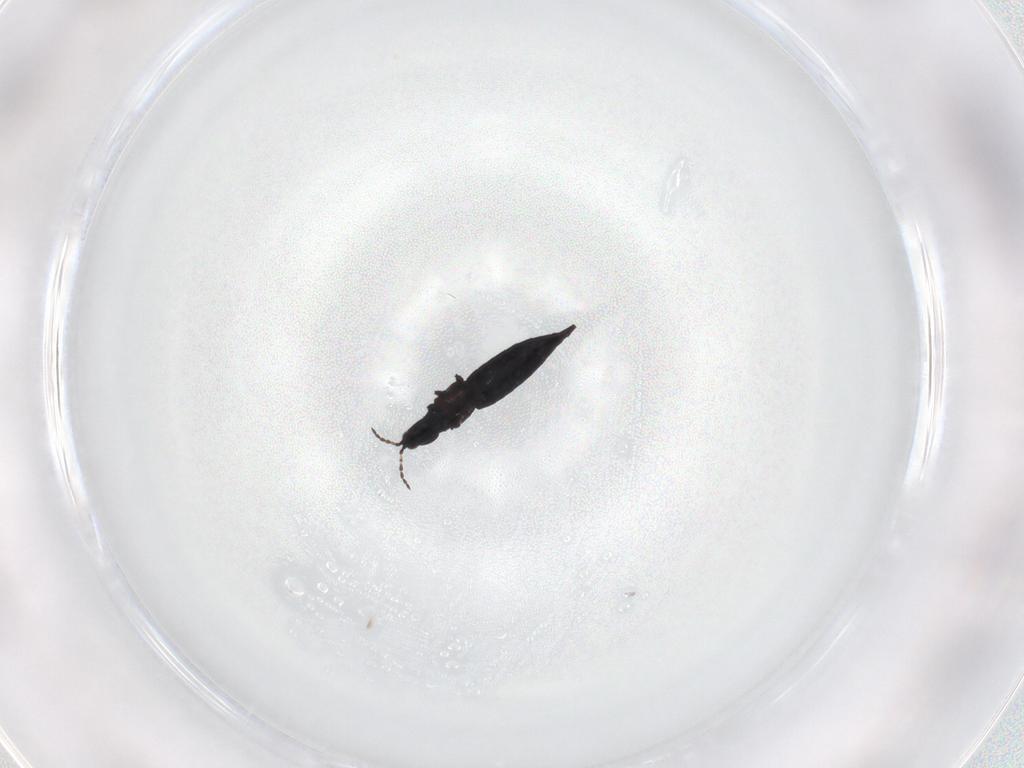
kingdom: Animalia
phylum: Arthropoda
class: Insecta
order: Thysanoptera
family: Phlaeothripidae
